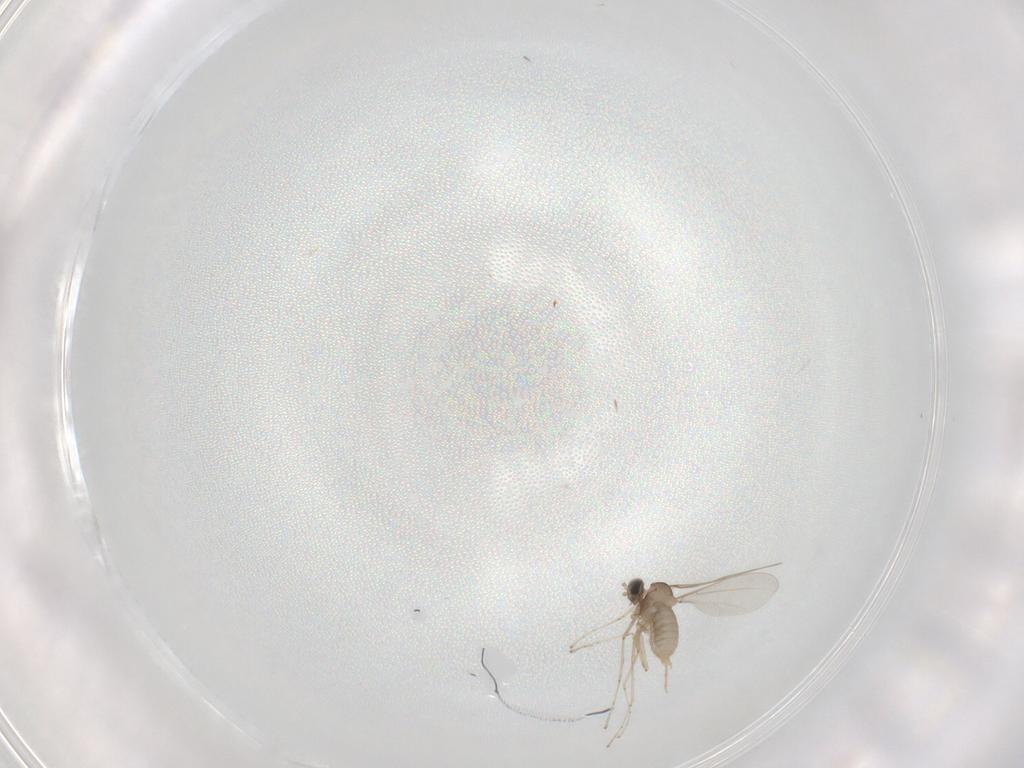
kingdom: Animalia
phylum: Arthropoda
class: Insecta
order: Diptera
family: Cecidomyiidae
